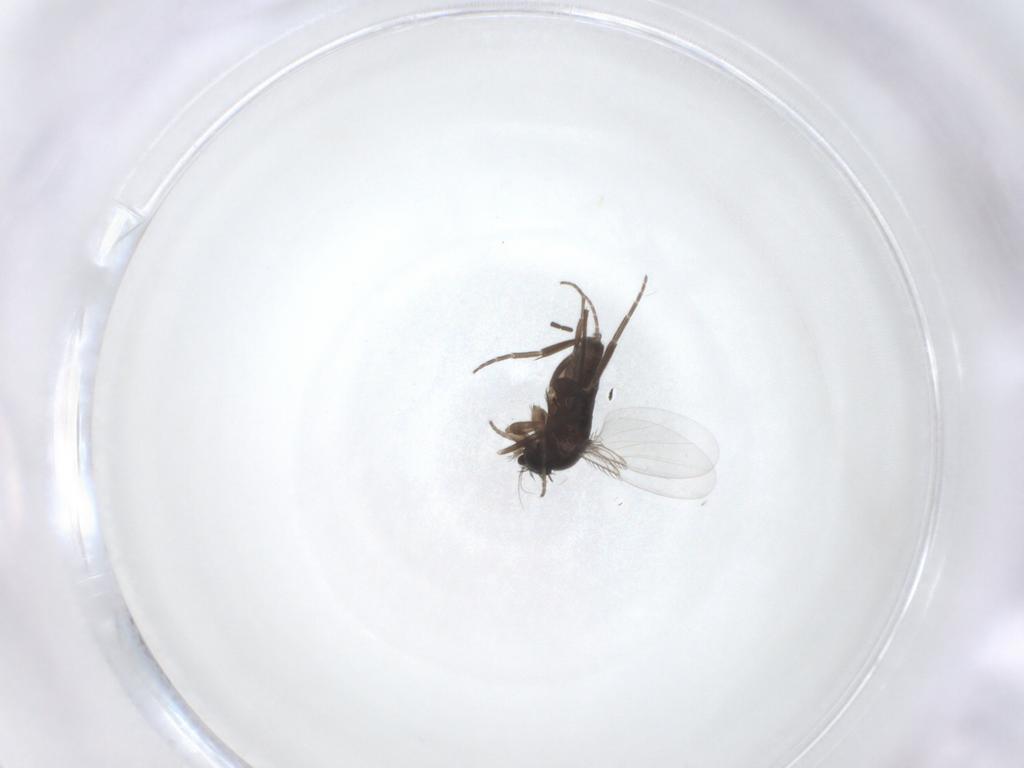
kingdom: Animalia
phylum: Arthropoda
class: Insecta
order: Diptera
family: Phoridae
